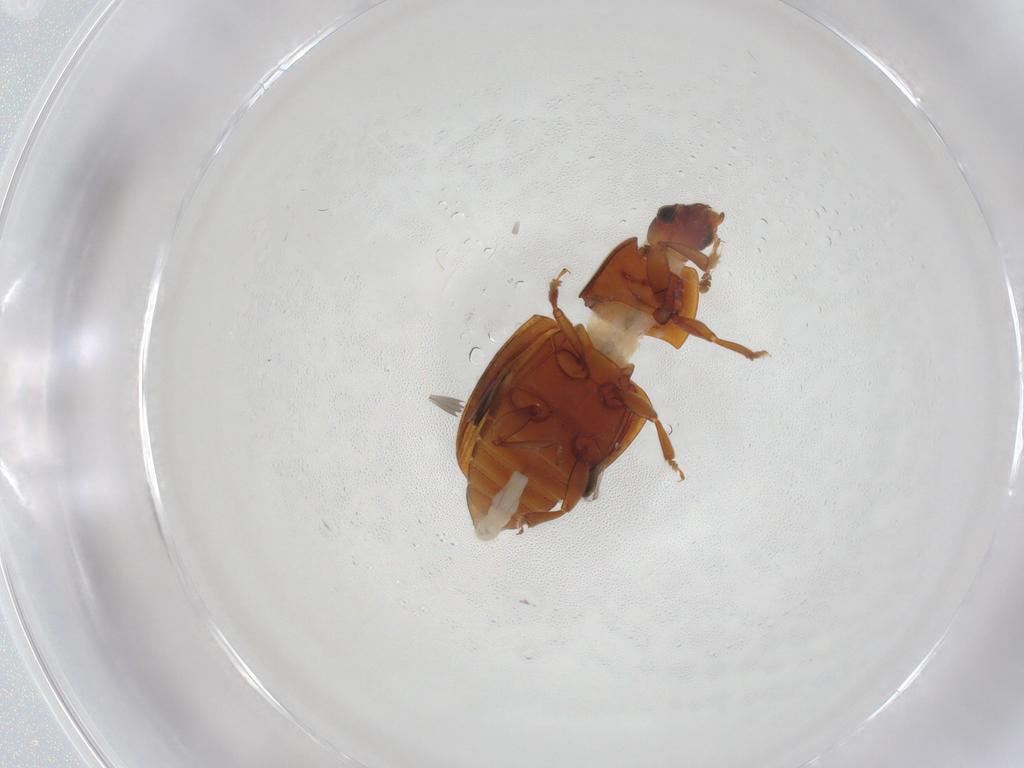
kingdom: Animalia
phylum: Arthropoda
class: Insecta
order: Coleoptera
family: Nitidulidae
